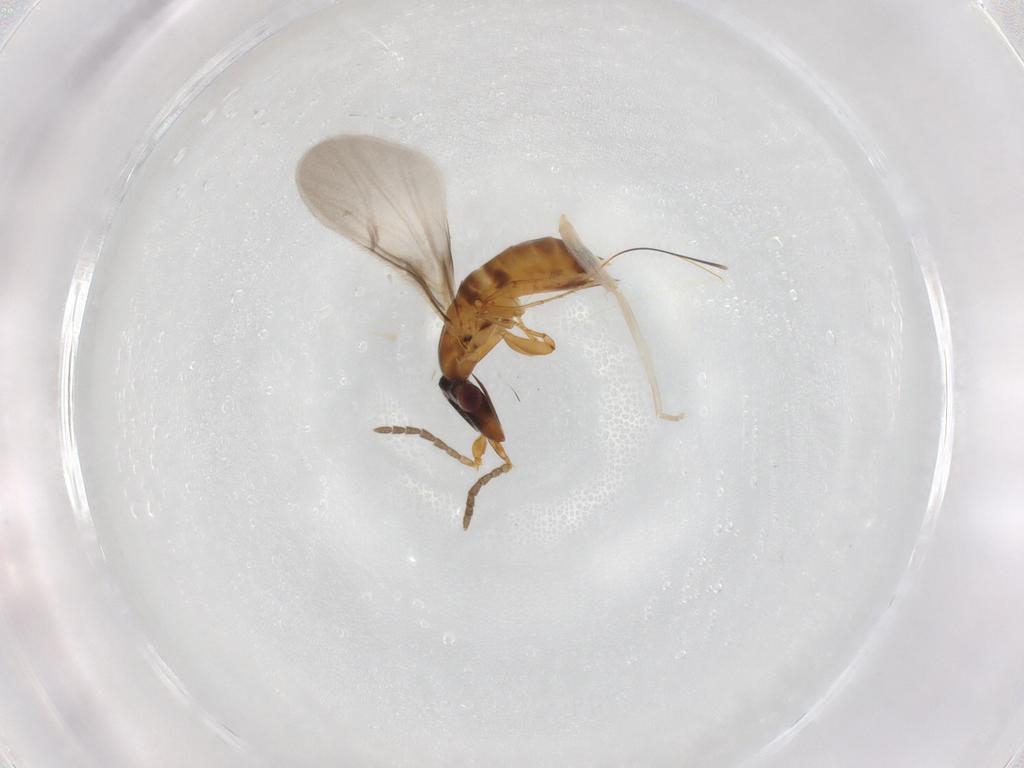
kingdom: Animalia
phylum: Arthropoda
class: Insecta
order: Hymenoptera
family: Agaonidae
